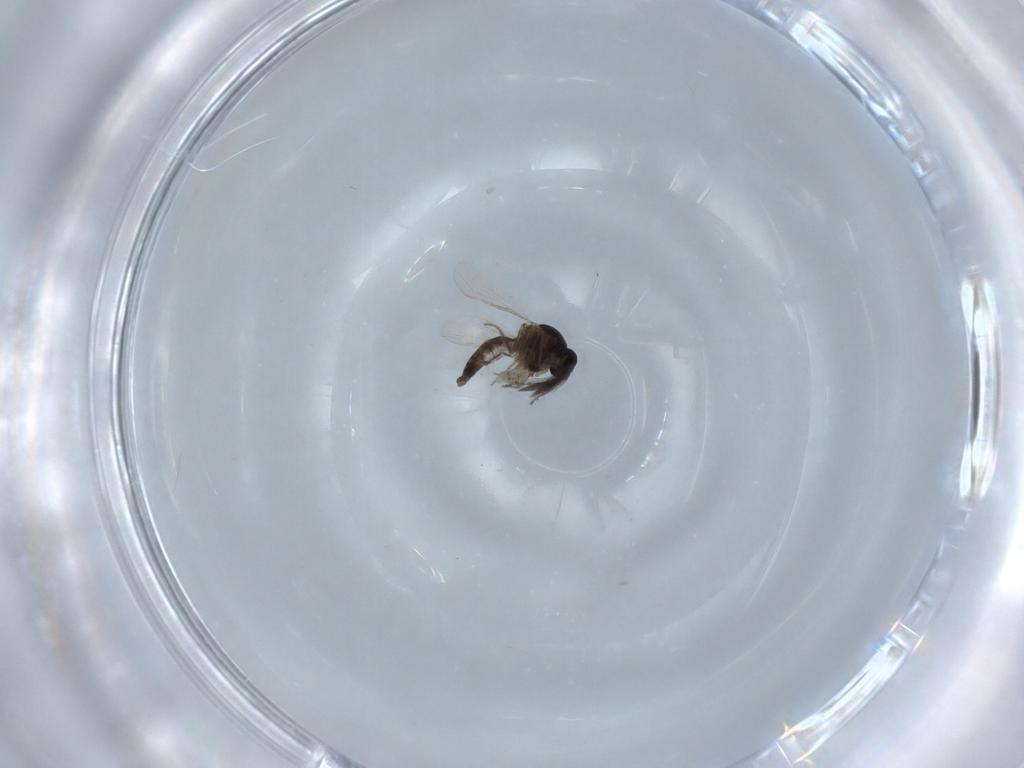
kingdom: Animalia
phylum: Arthropoda
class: Insecta
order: Diptera
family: Ceratopogonidae
